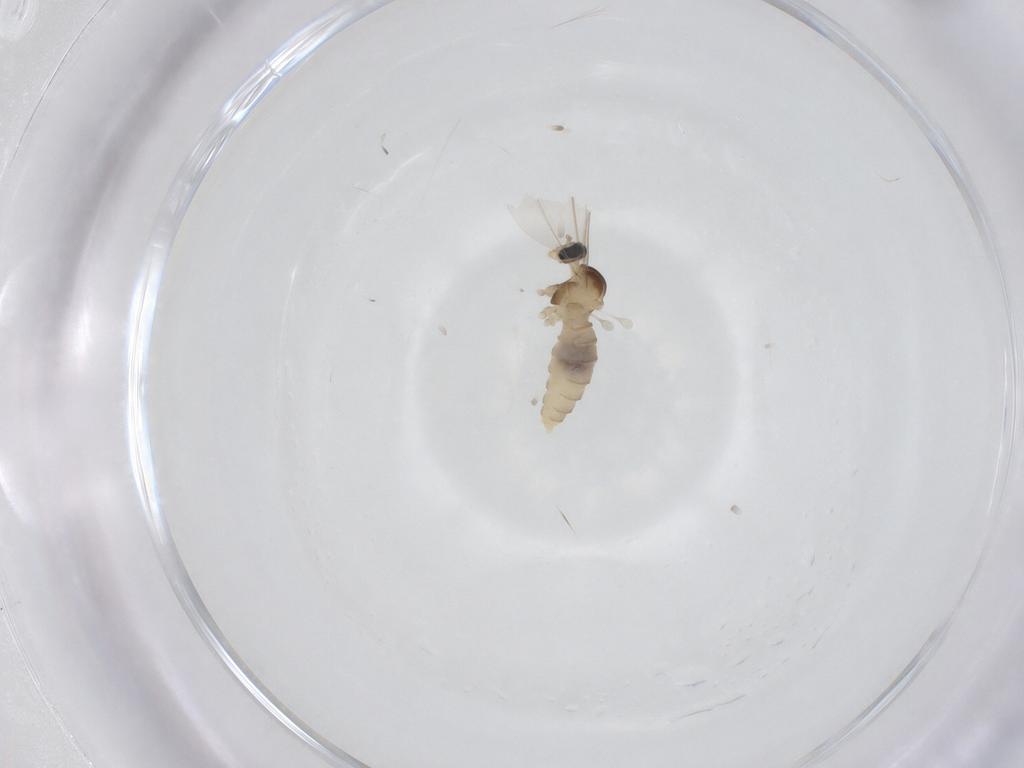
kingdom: Animalia
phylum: Arthropoda
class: Insecta
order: Diptera
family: Cecidomyiidae
